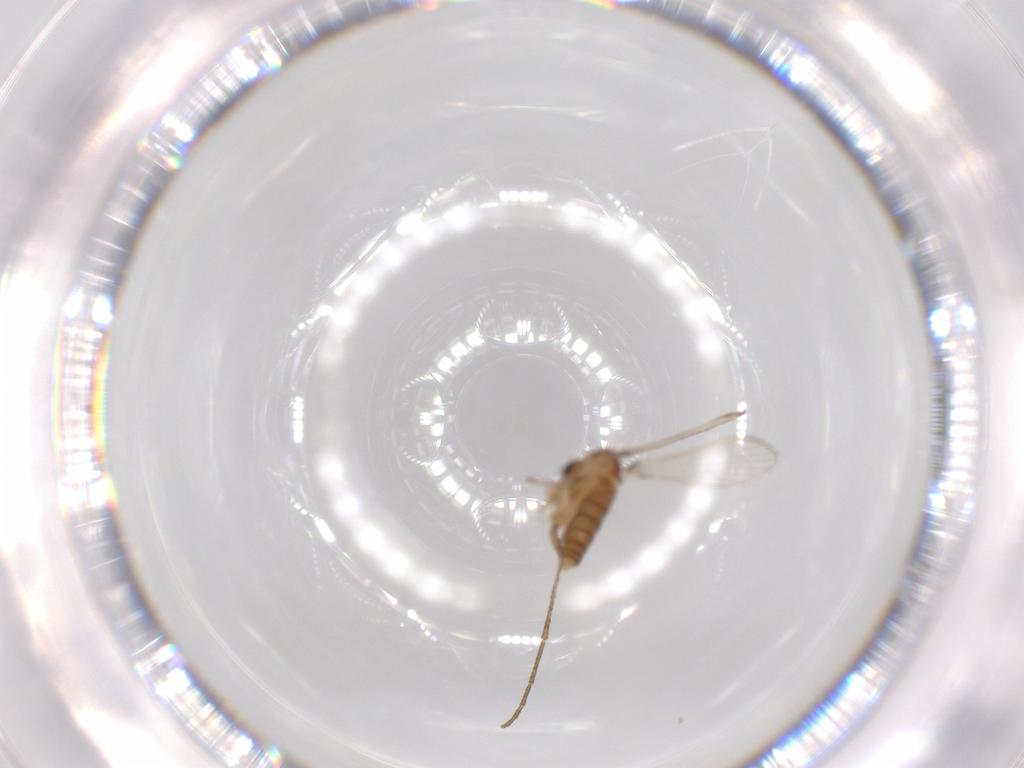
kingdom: Animalia
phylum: Arthropoda
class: Insecta
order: Diptera
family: Psychodidae
